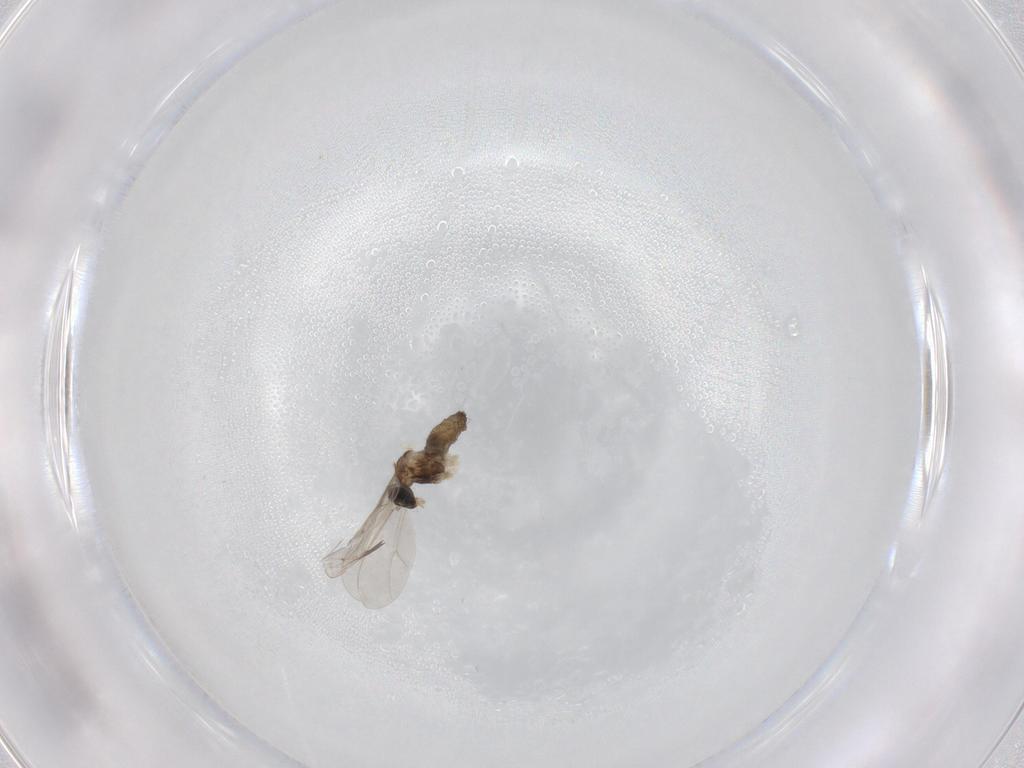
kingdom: Animalia
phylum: Arthropoda
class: Insecta
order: Diptera
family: Cecidomyiidae
